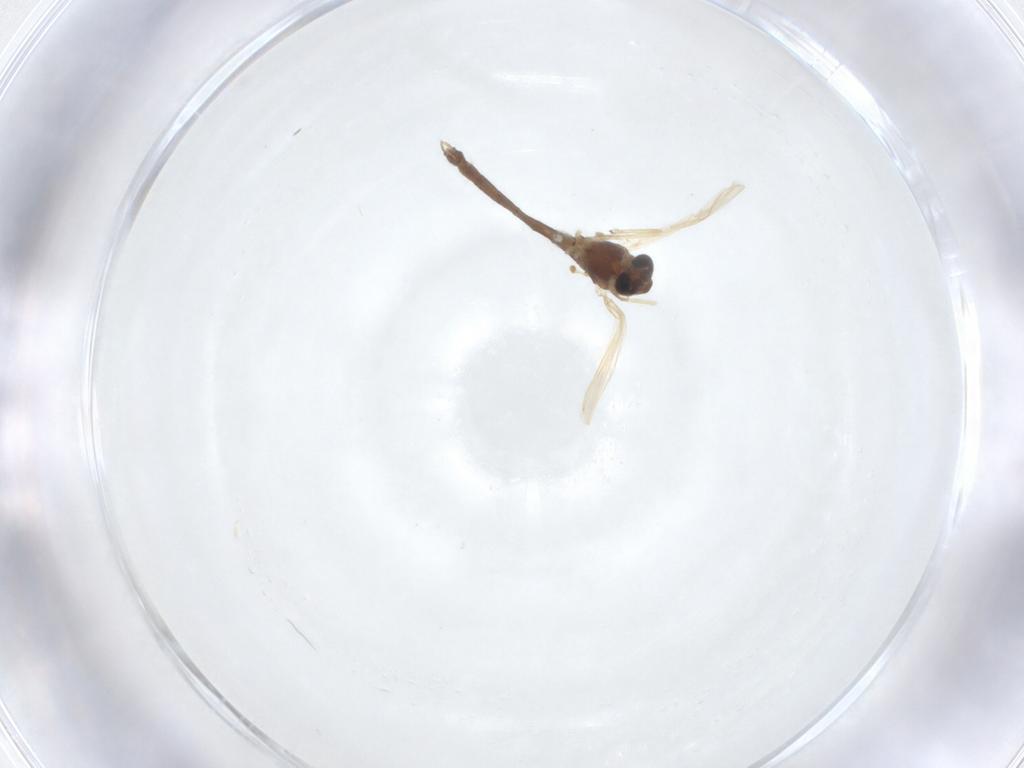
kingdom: Animalia
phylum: Arthropoda
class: Insecta
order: Diptera
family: Chironomidae
